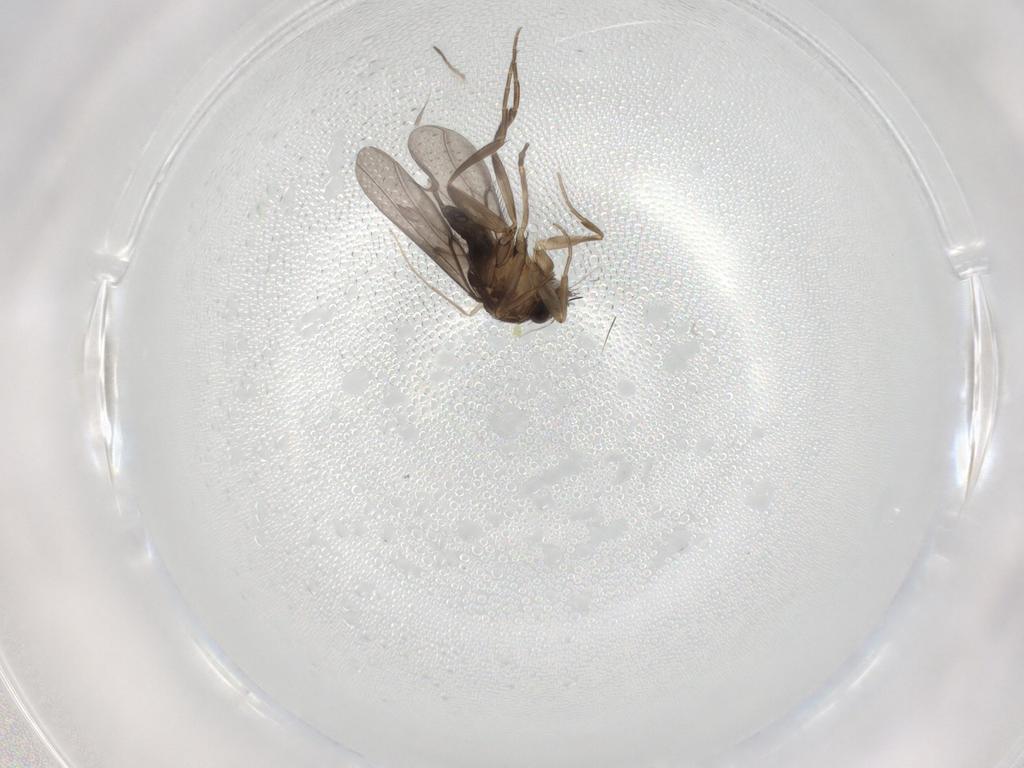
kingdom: Animalia
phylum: Arthropoda
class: Insecta
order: Diptera
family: Phoridae
